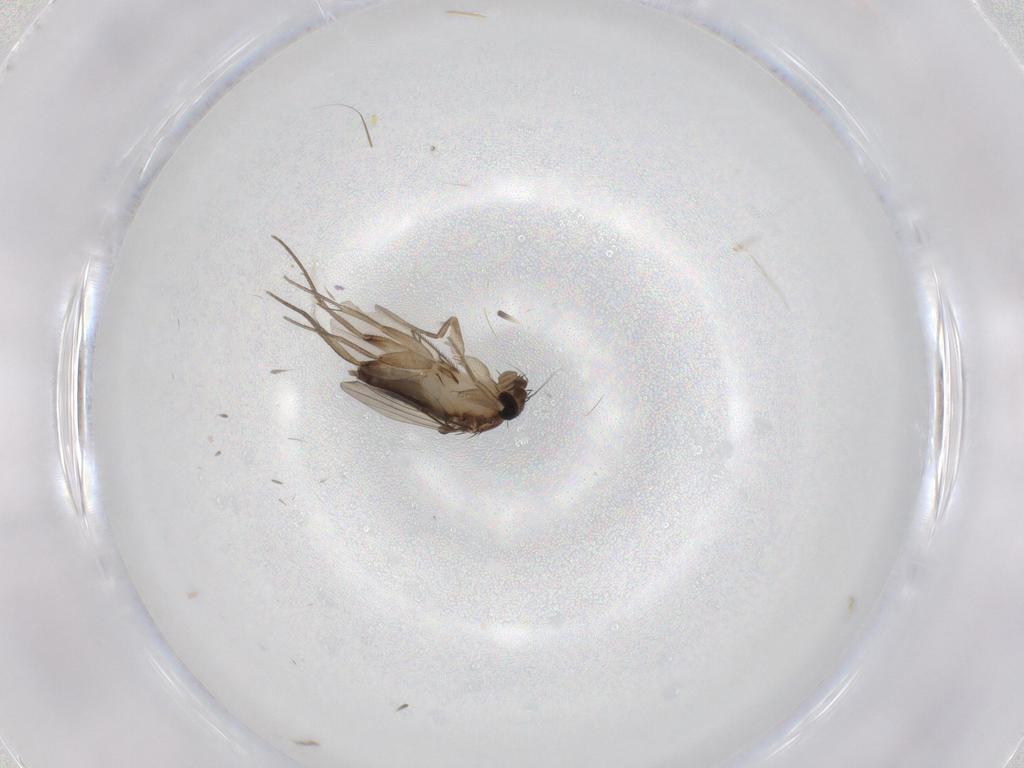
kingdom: Animalia
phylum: Arthropoda
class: Insecta
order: Diptera
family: Phoridae
